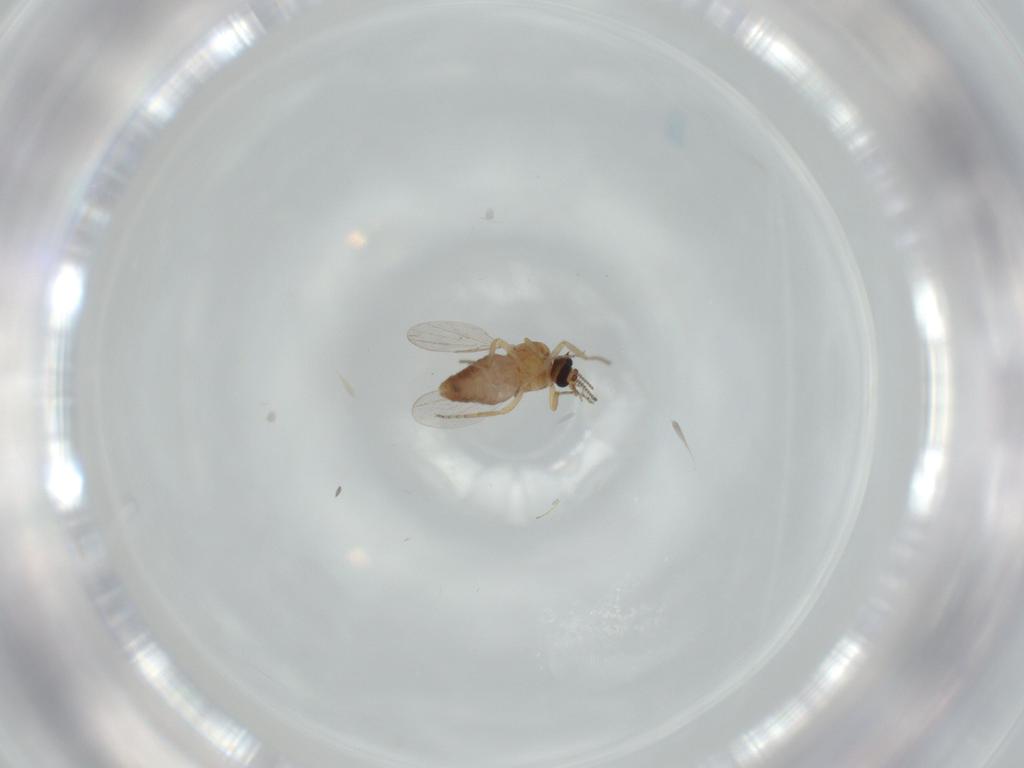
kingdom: Animalia
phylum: Arthropoda
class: Insecta
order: Diptera
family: Ceratopogonidae
